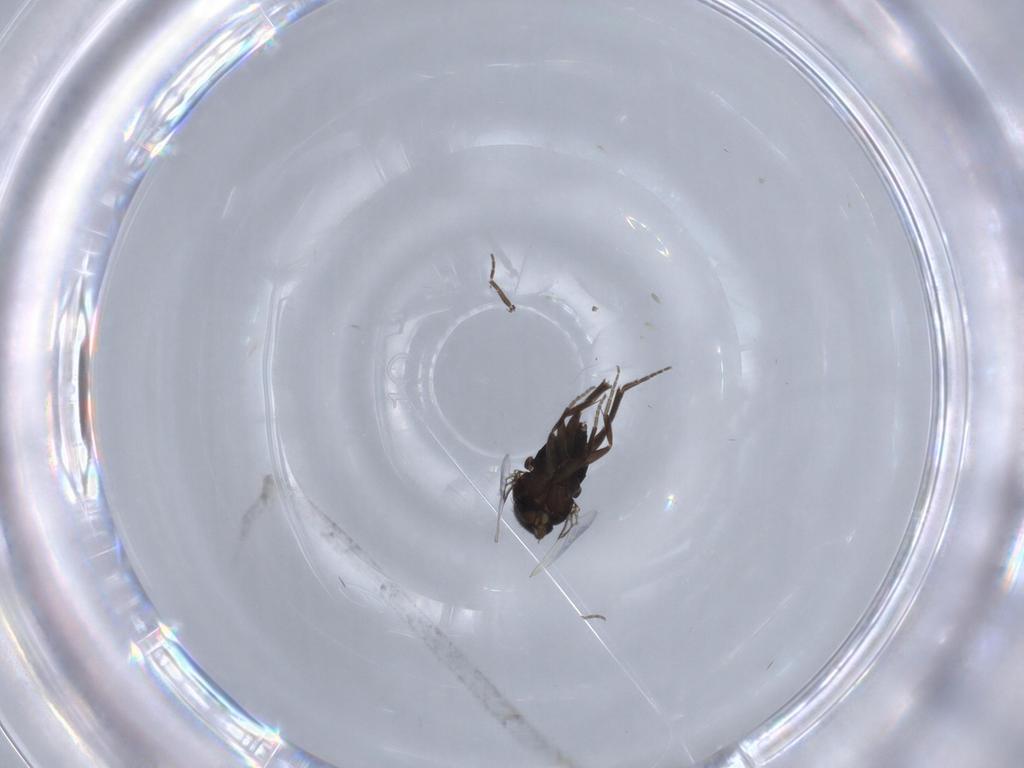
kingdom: Animalia
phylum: Arthropoda
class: Insecta
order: Diptera
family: Phoridae
